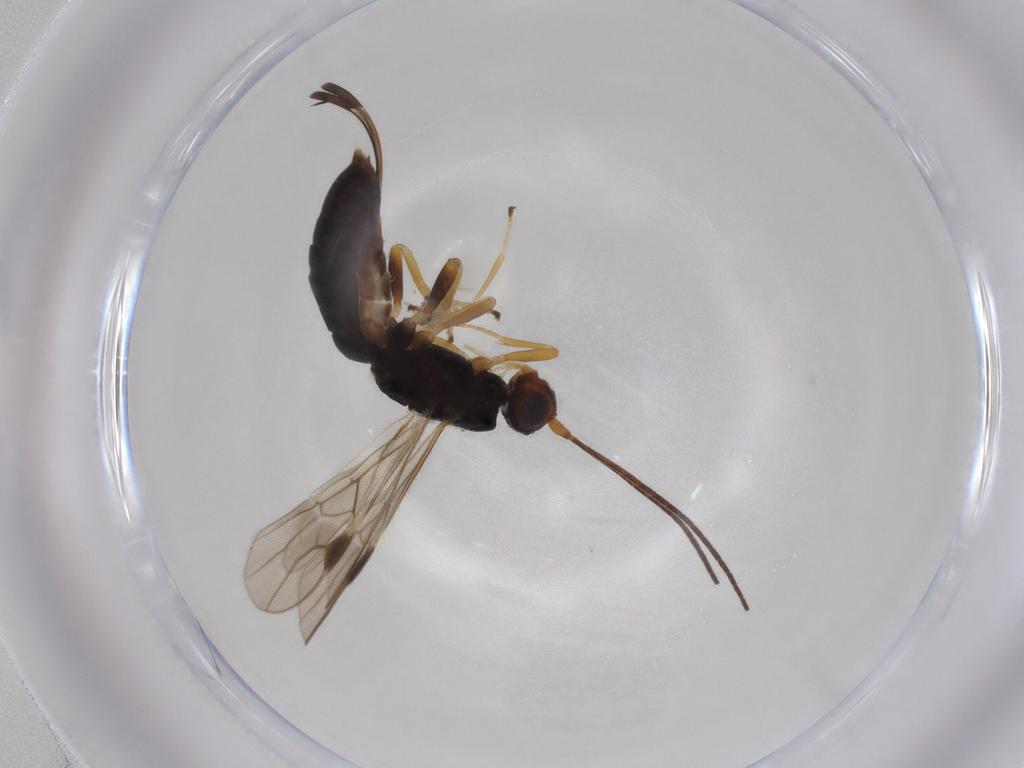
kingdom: Animalia
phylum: Arthropoda
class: Insecta
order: Hymenoptera
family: Braconidae
